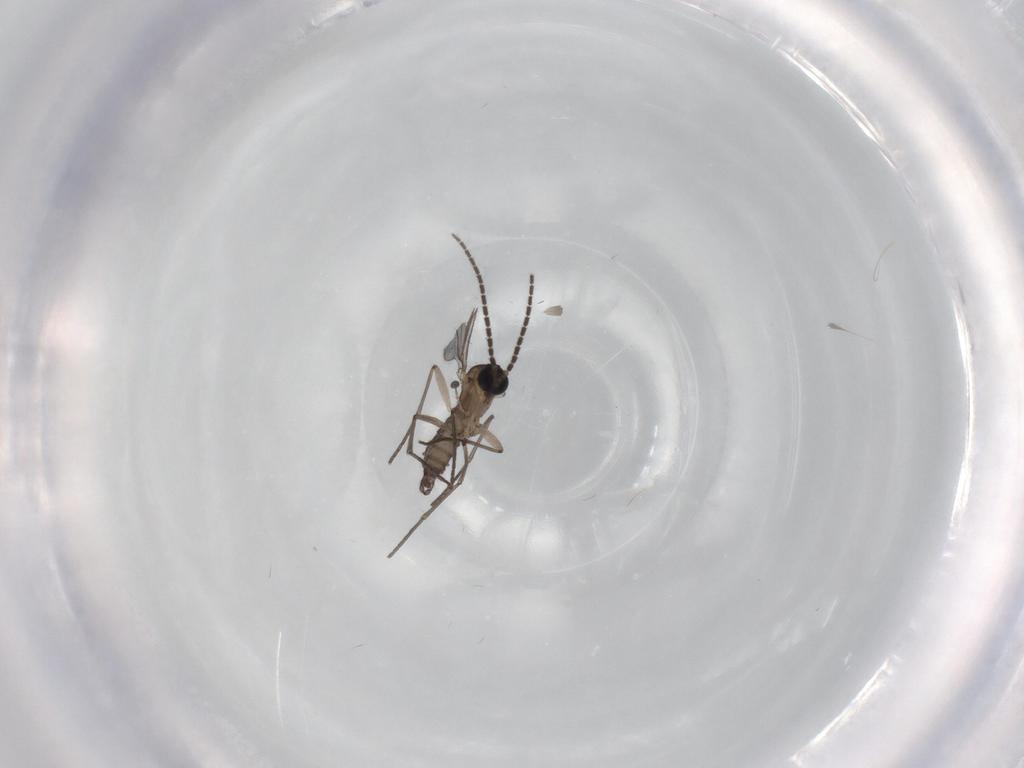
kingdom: Animalia
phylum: Arthropoda
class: Insecta
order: Diptera
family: Sciaridae
